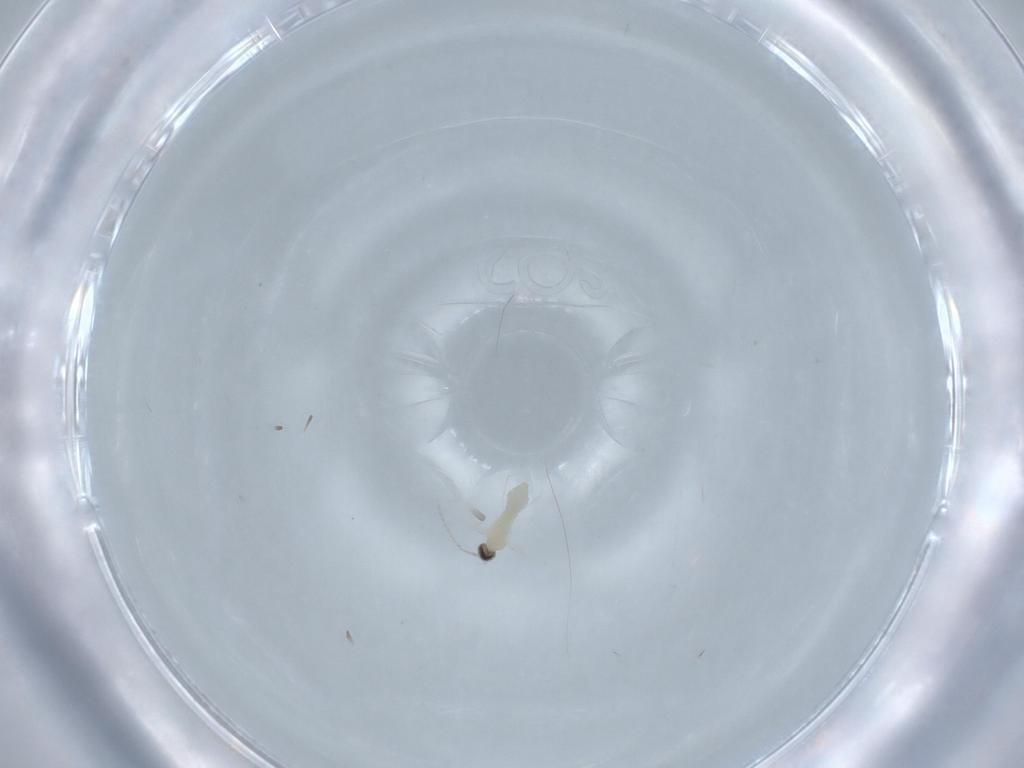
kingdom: Animalia
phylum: Arthropoda
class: Insecta
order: Diptera
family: Cecidomyiidae
